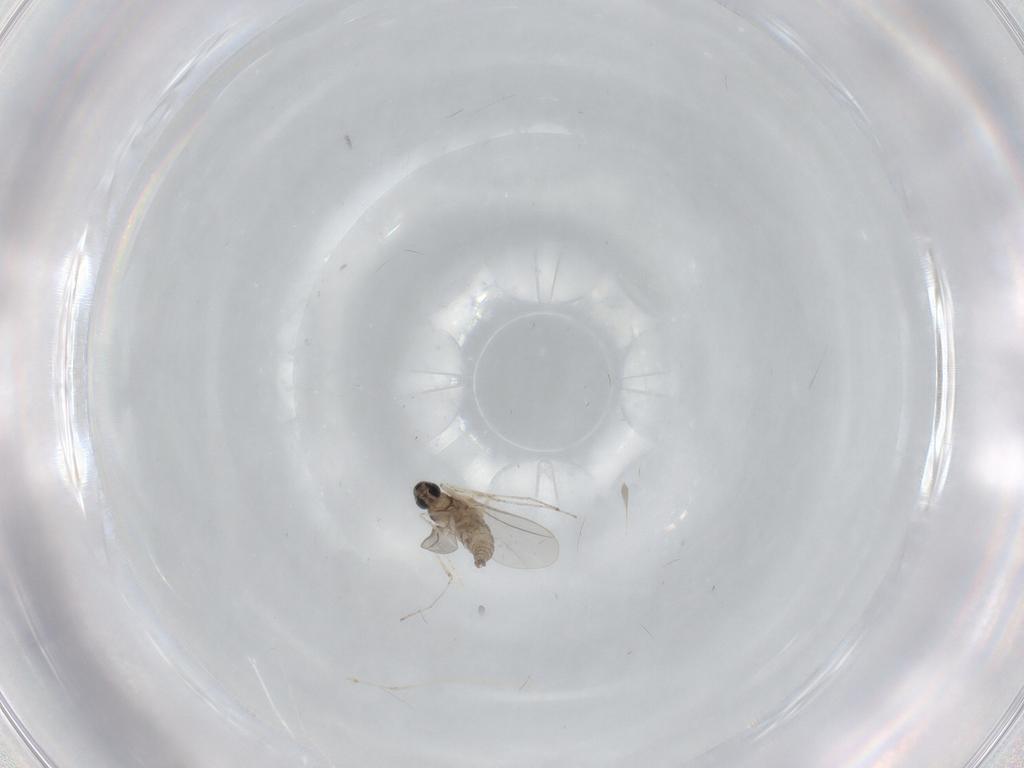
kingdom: Animalia
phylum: Arthropoda
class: Insecta
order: Diptera
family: Cecidomyiidae
